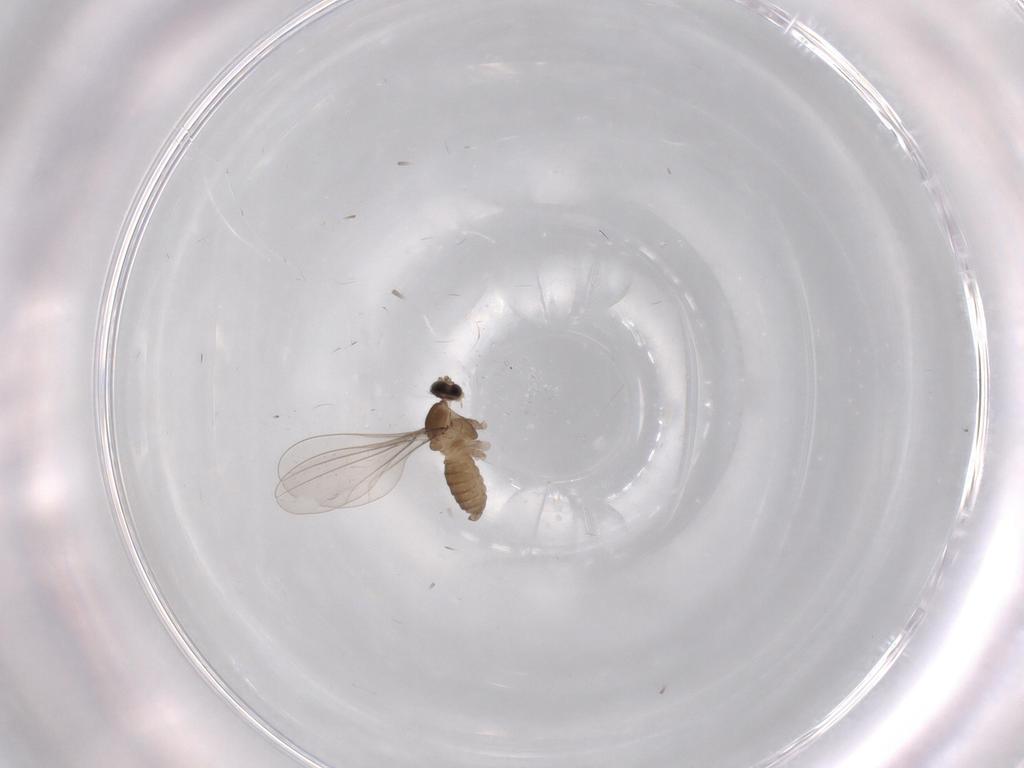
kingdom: Animalia
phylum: Arthropoda
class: Insecta
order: Diptera
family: Cecidomyiidae
